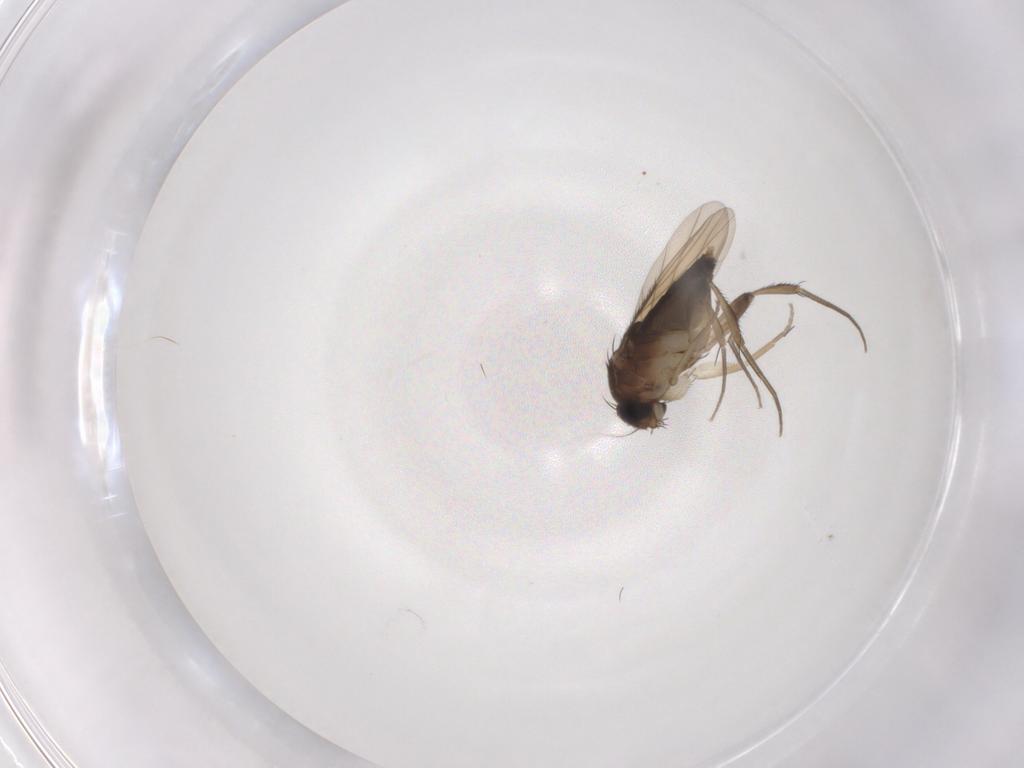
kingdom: Animalia
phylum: Arthropoda
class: Insecta
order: Diptera
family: Phoridae
